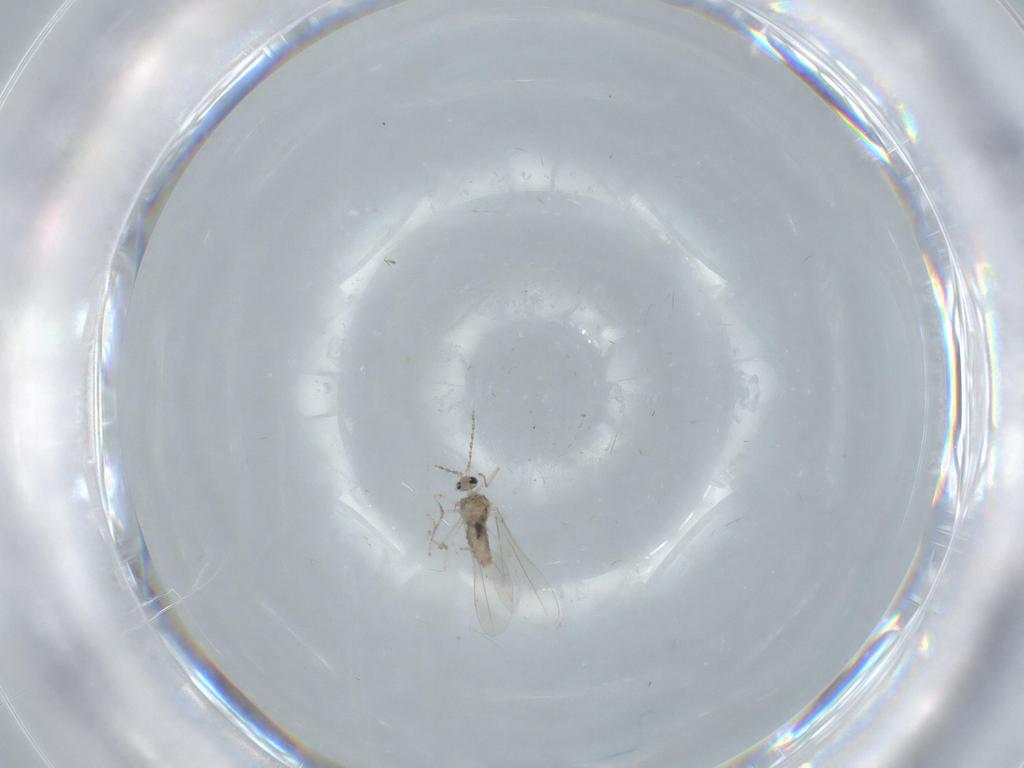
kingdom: Animalia
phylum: Arthropoda
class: Insecta
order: Diptera
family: Cecidomyiidae
